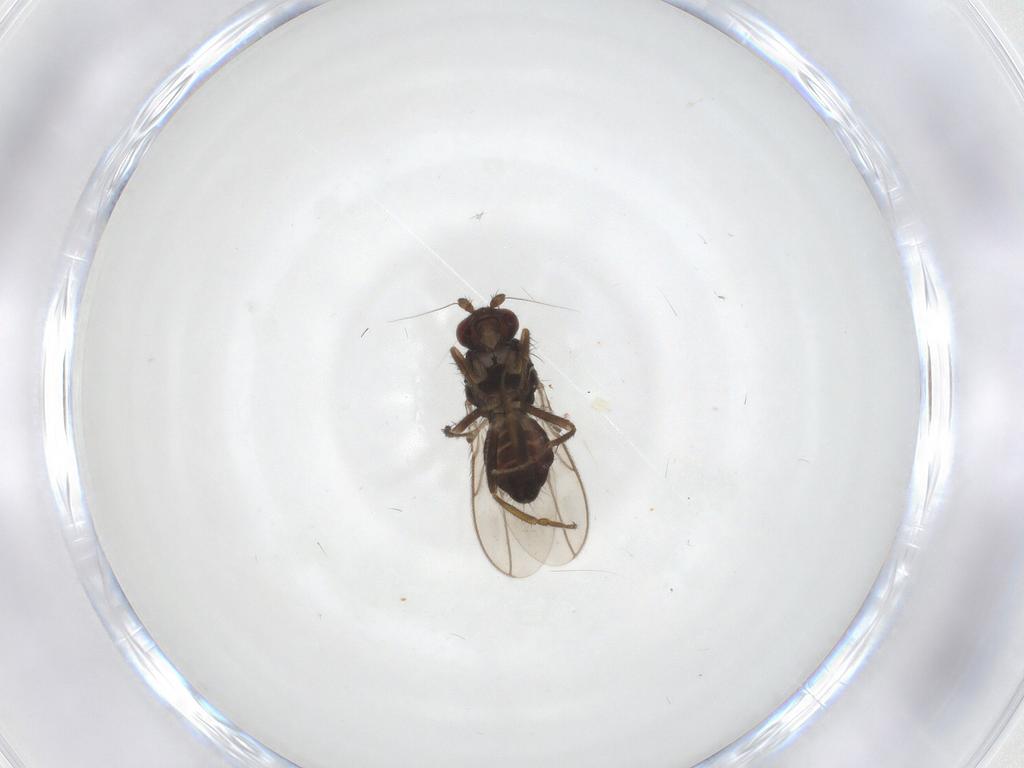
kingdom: Animalia
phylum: Arthropoda
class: Insecta
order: Diptera
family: Sphaeroceridae
